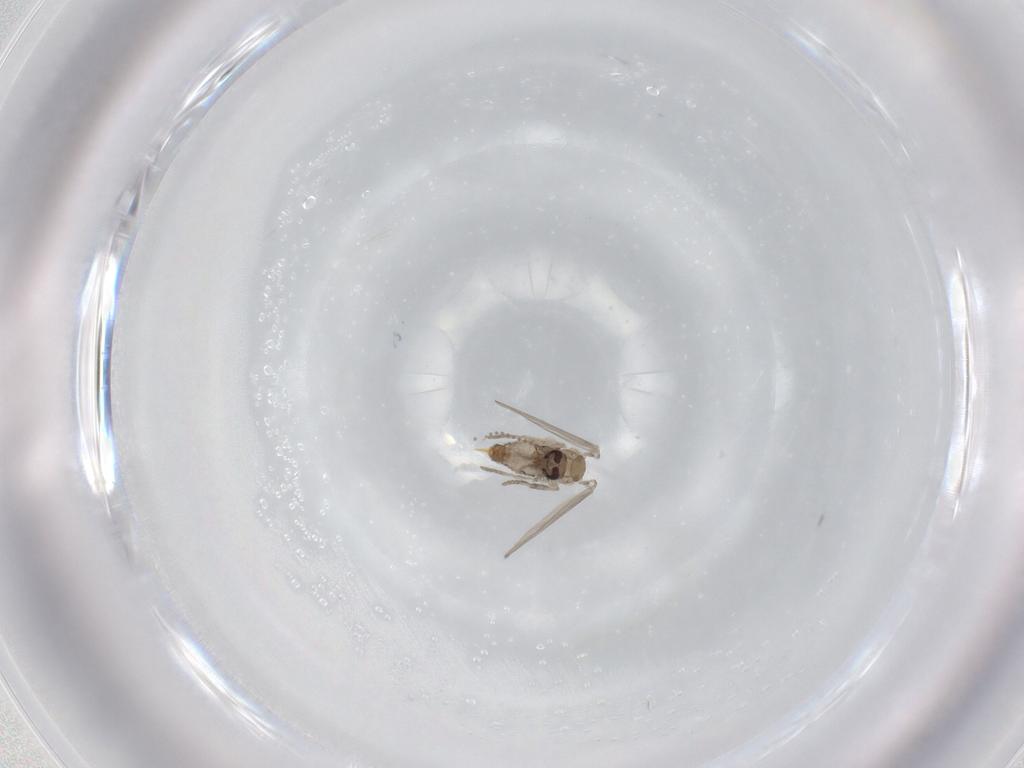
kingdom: Animalia
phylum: Arthropoda
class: Insecta
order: Diptera
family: Psychodidae
